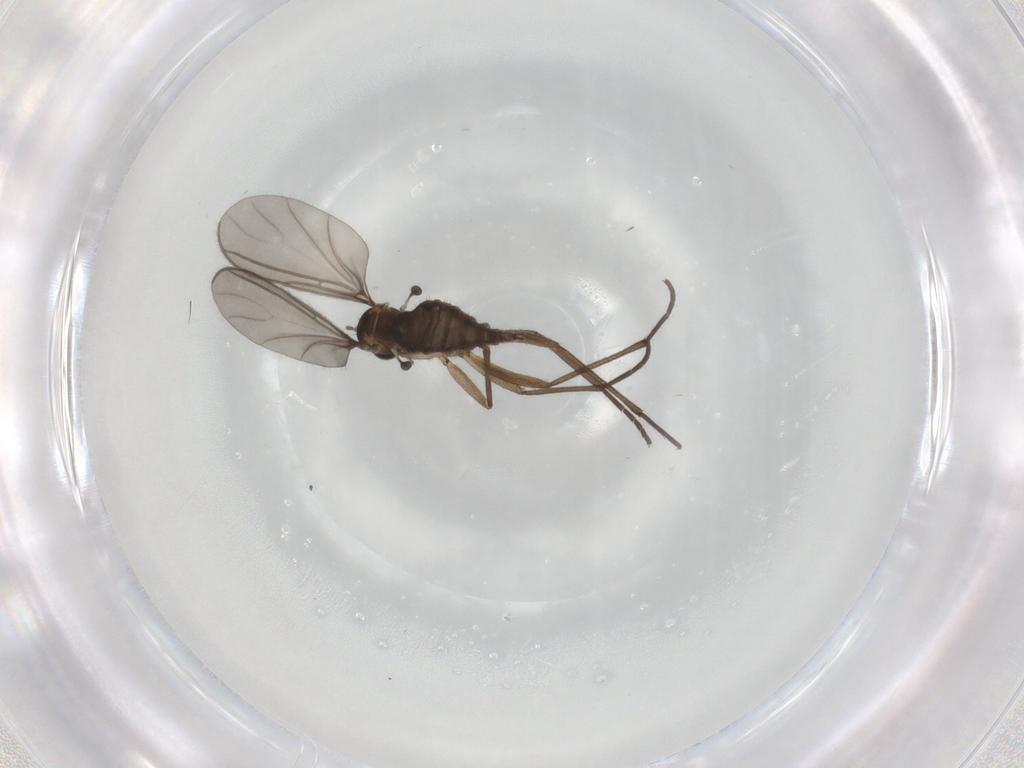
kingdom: Animalia
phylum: Arthropoda
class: Insecta
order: Diptera
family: Sciaridae
